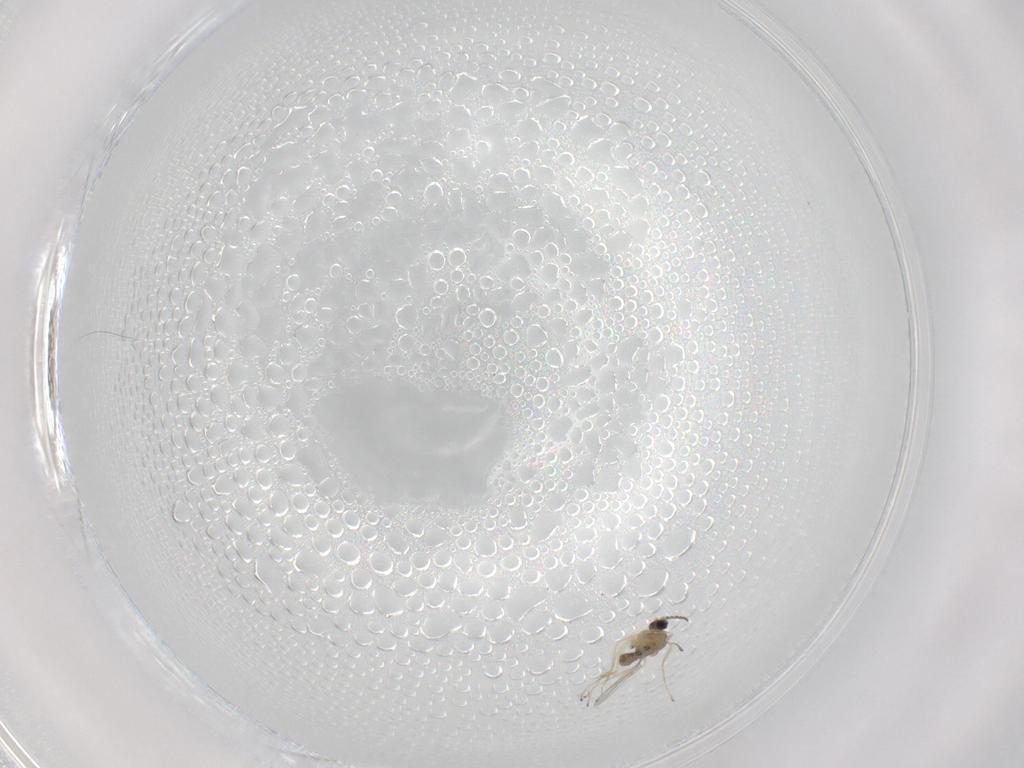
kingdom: Animalia
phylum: Arthropoda
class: Insecta
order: Diptera
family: Cecidomyiidae
